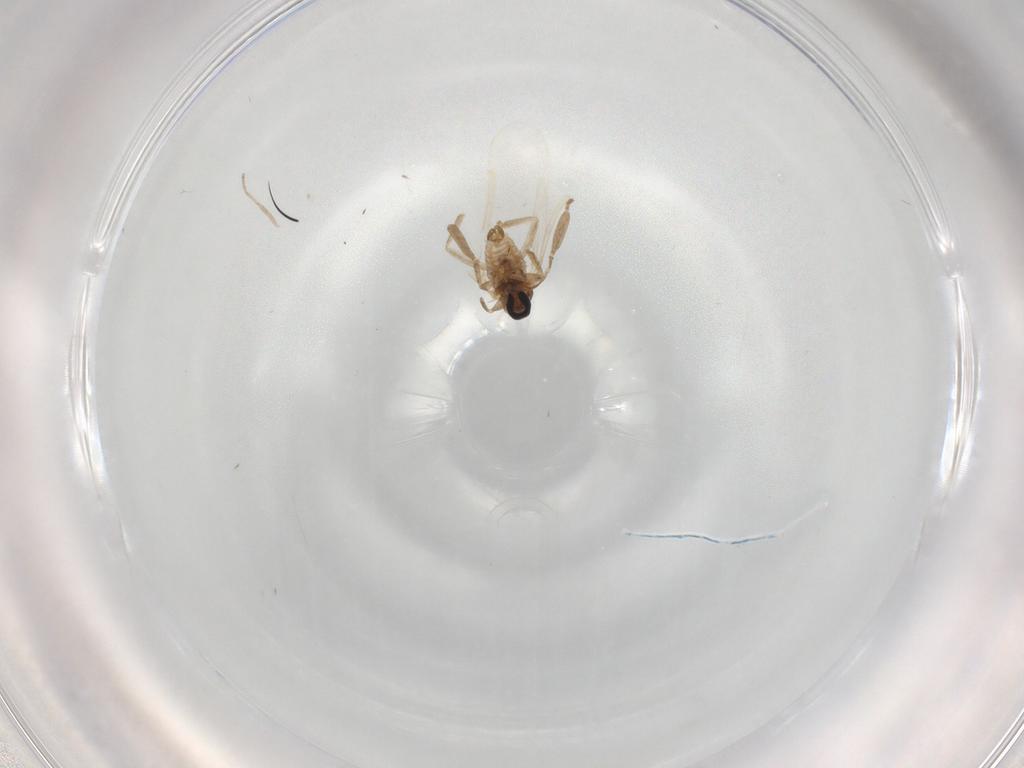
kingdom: Animalia
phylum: Arthropoda
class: Insecta
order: Diptera
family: Cecidomyiidae
